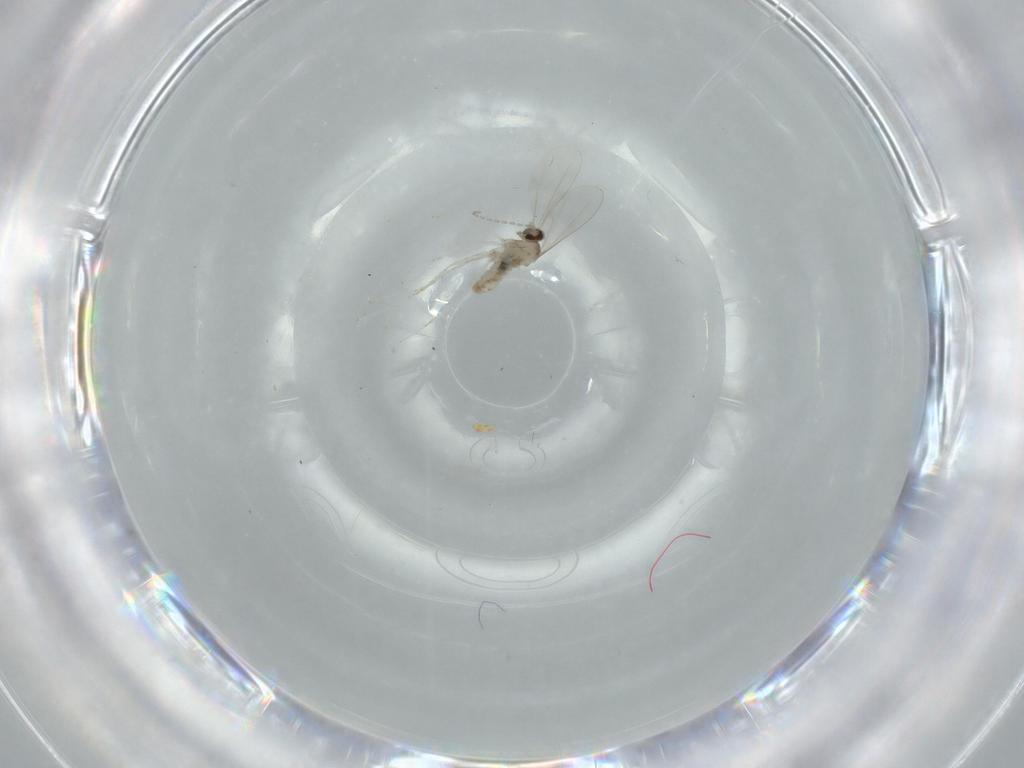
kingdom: Animalia
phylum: Arthropoda
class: Insecta
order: Diptera
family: Cecidomyiidae
